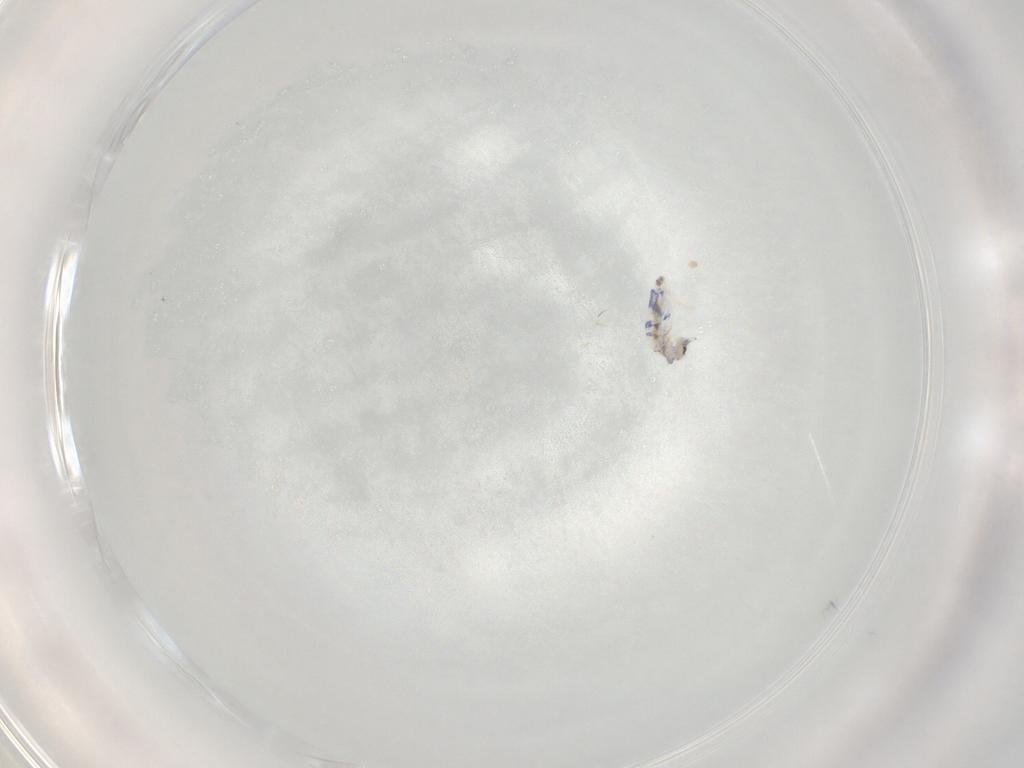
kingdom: Animalia
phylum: Arthropoda
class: Collembola
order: Entomobryomorpha
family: Entomobryidae
